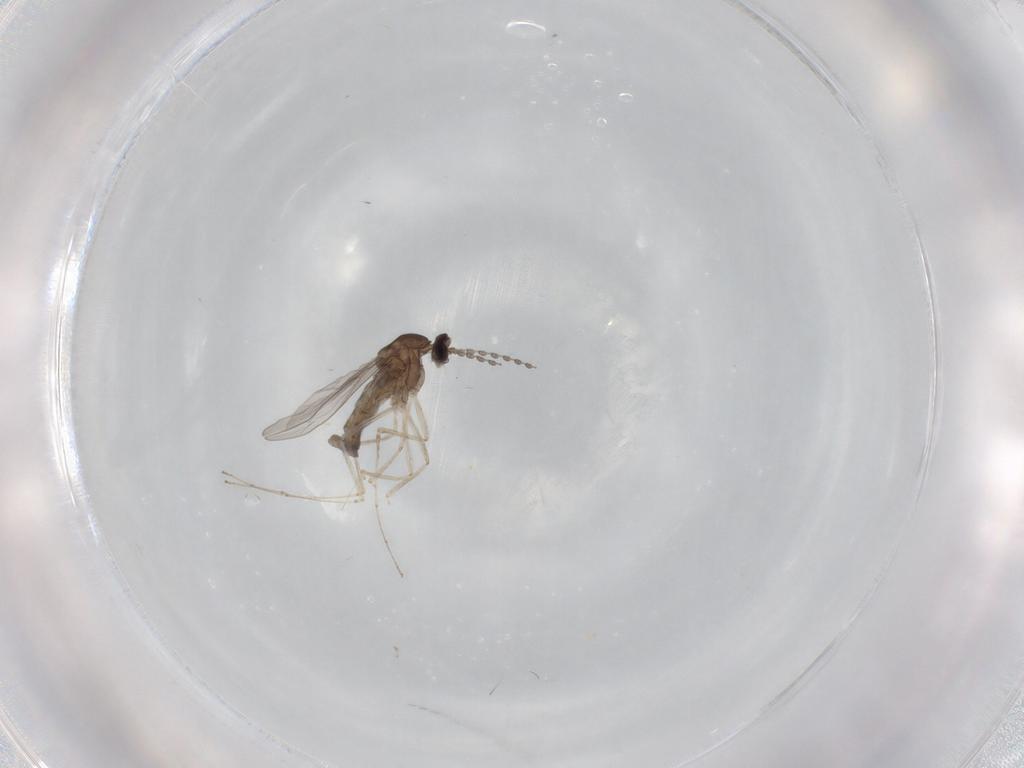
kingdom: Animalia
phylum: Arthropoda
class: Insecta
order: Diptera
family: Cecidomyiidae
